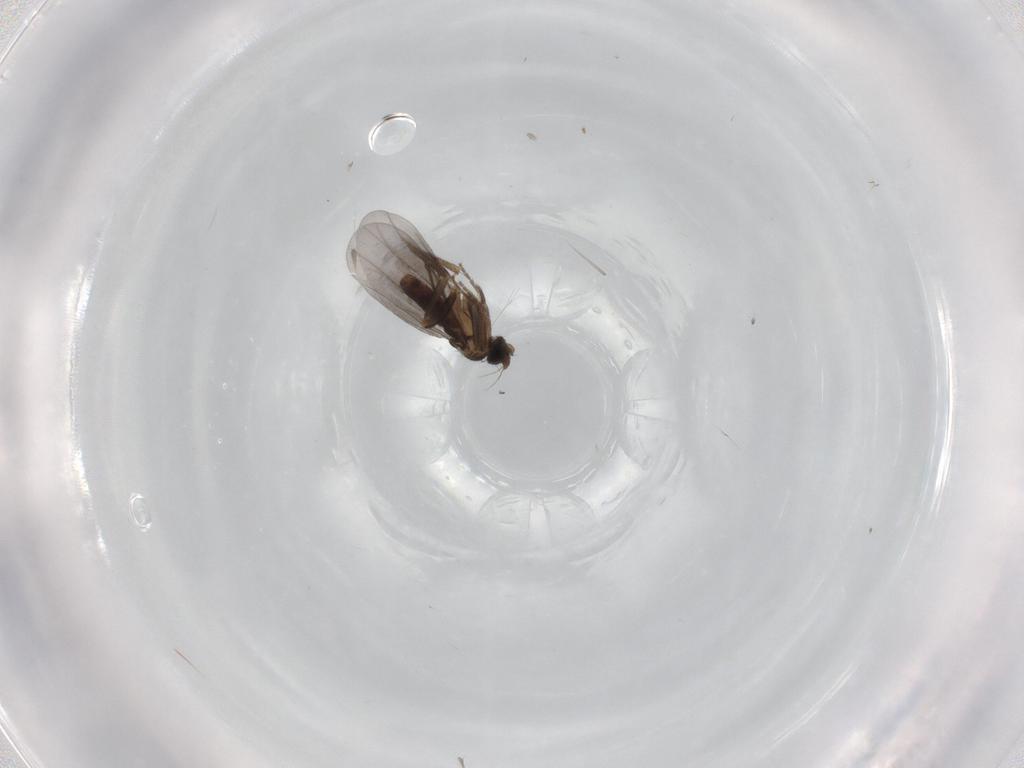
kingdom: Animalia
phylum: Arthropoda
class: Insecta
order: Diptera
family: Phoridae
